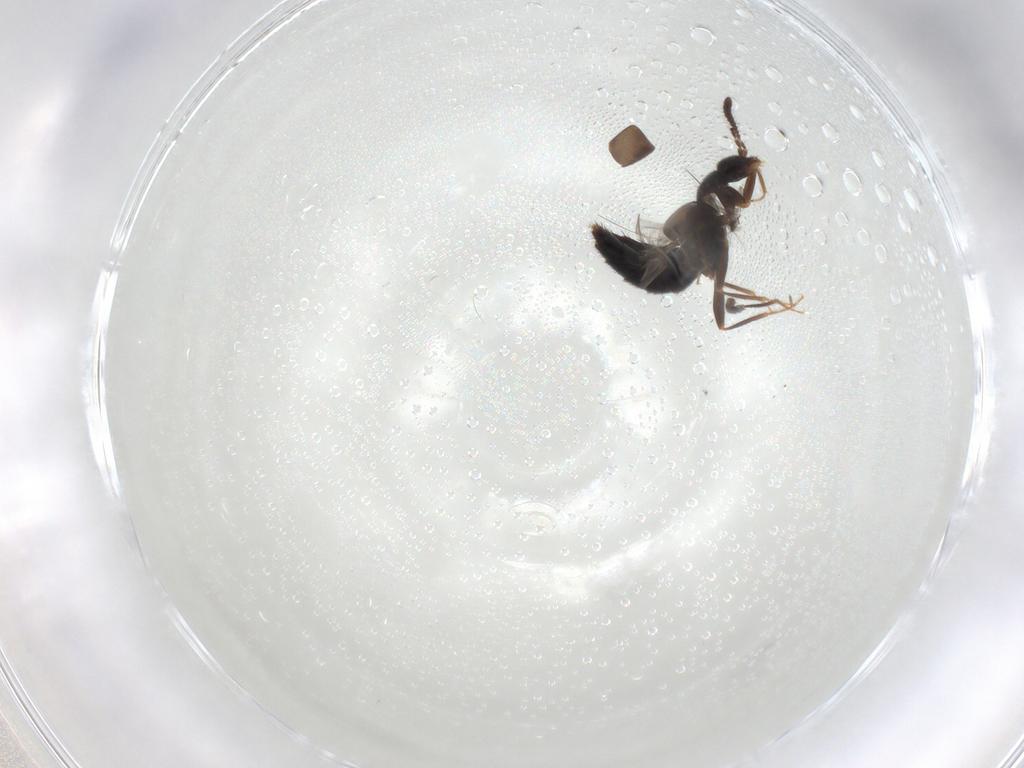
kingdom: Animalia
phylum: Arthropoda
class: Insecta
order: Coleoptera
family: Staphylinidae
